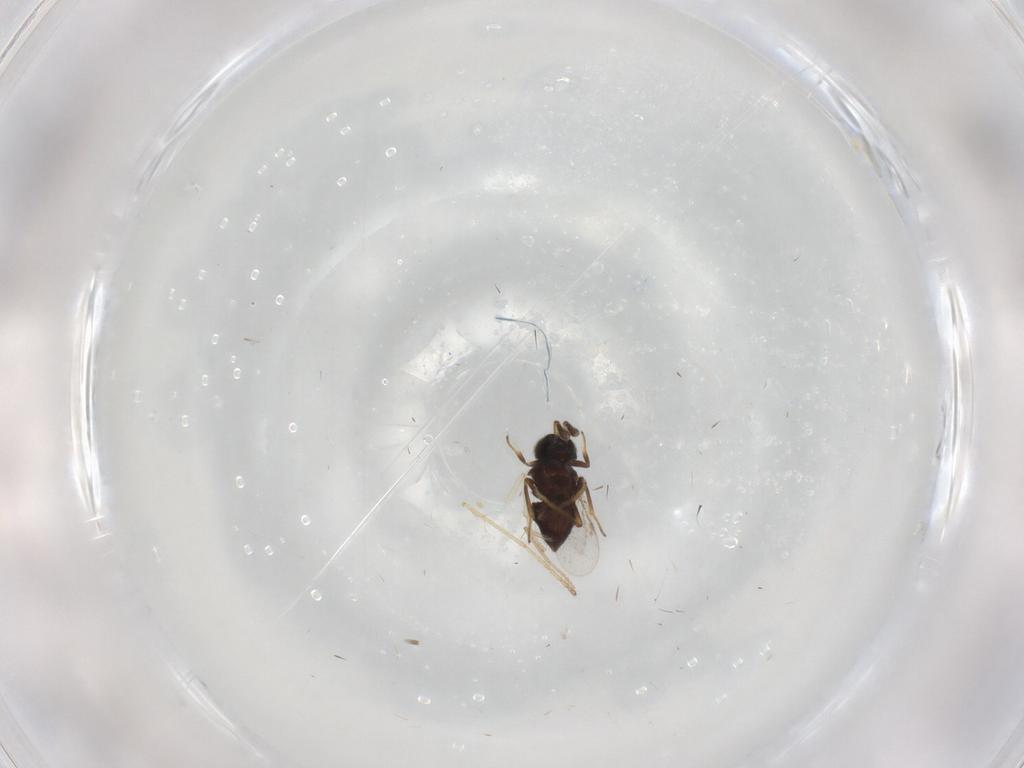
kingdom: Animalia
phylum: Arthropoda
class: Insecta
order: Hymenoptera
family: Encyrtidae
